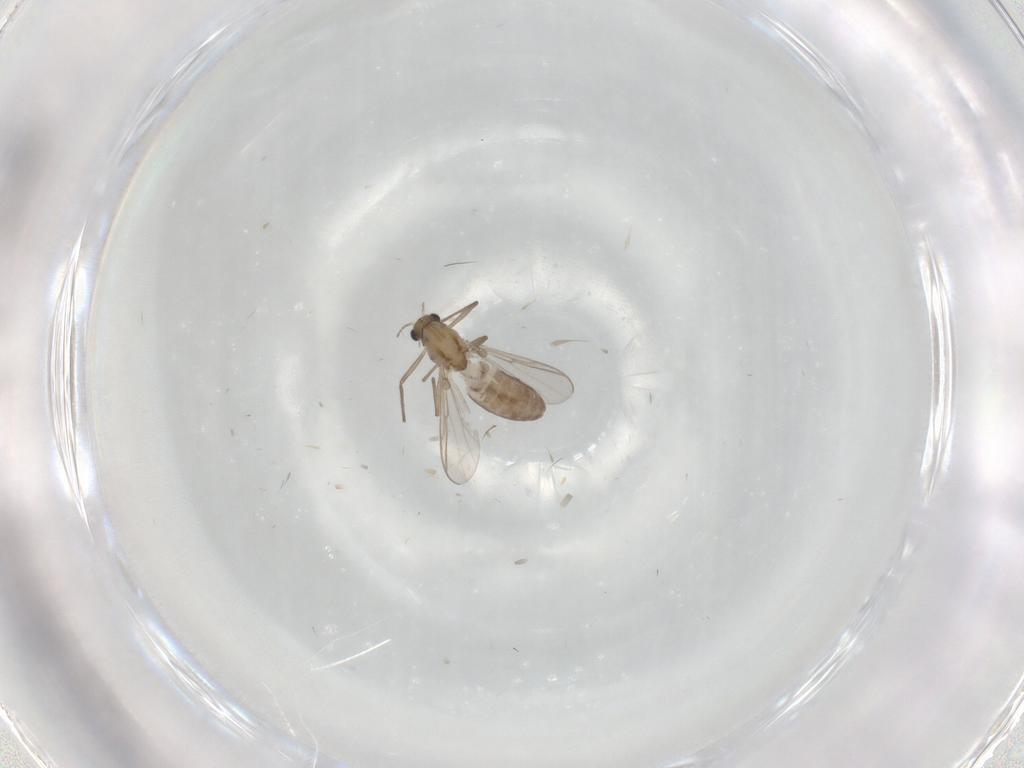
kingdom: Animalia
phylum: Arthropoda
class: Insecta
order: Diptera
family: Chironomidae
